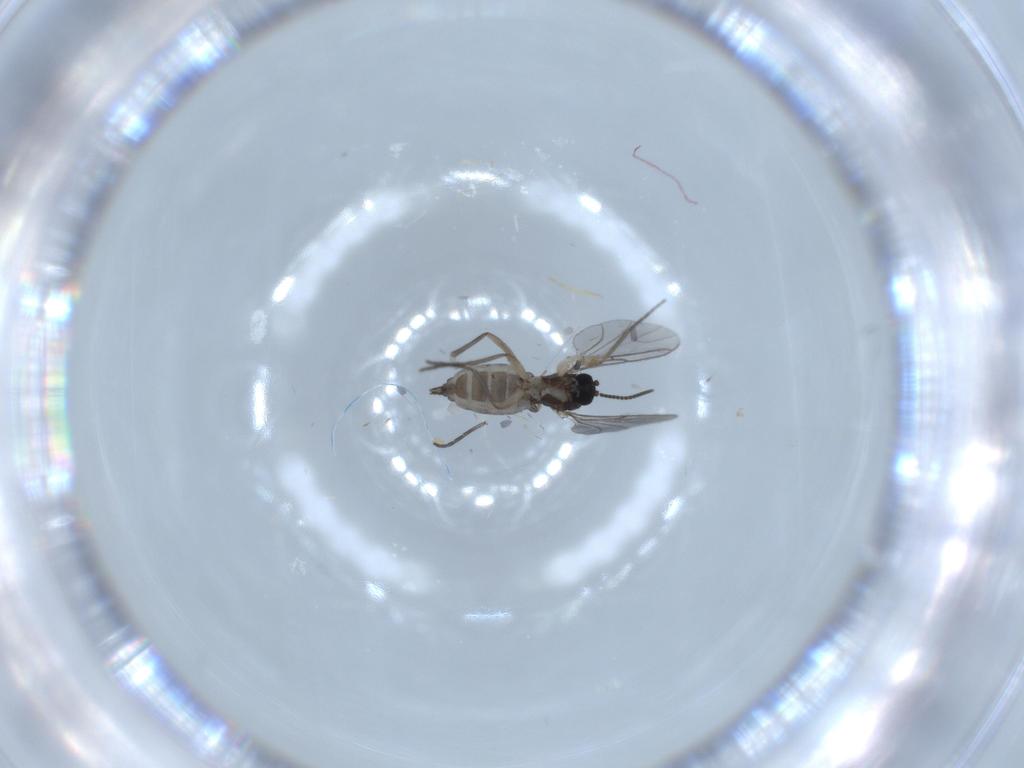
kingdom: Animalia
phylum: Arthropoda
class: Insecta
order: Diptera
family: Sciaridae
